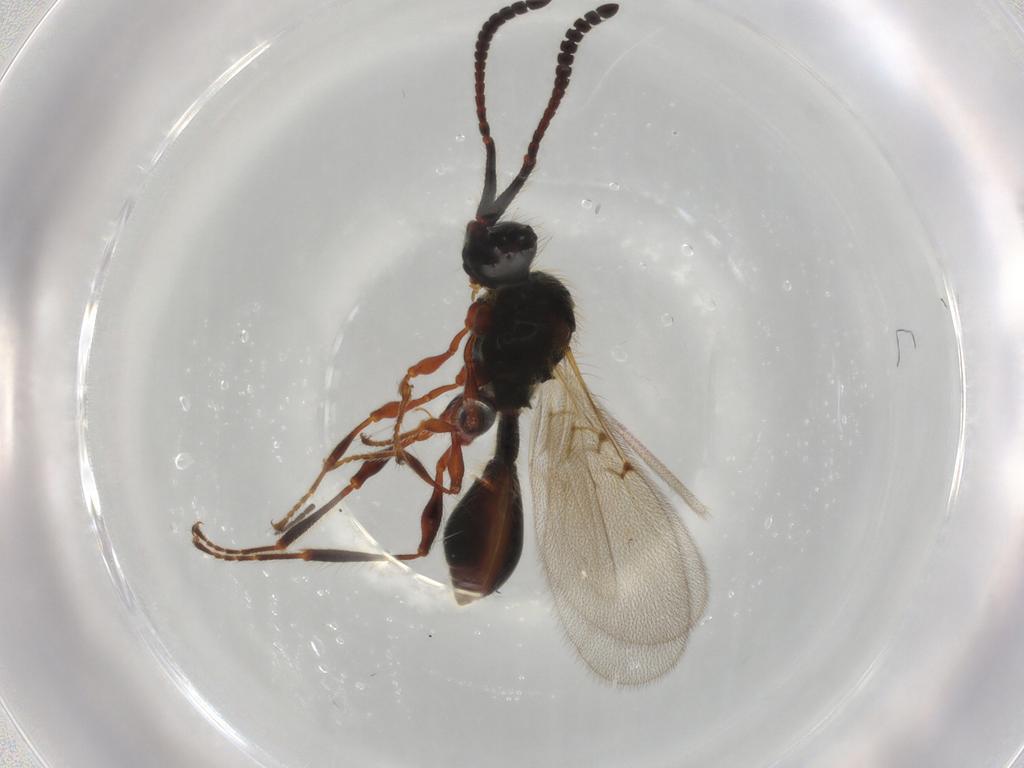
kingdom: Animalia
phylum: Arthropoda
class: Insecta
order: Hymenoptera
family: Diapriidae
